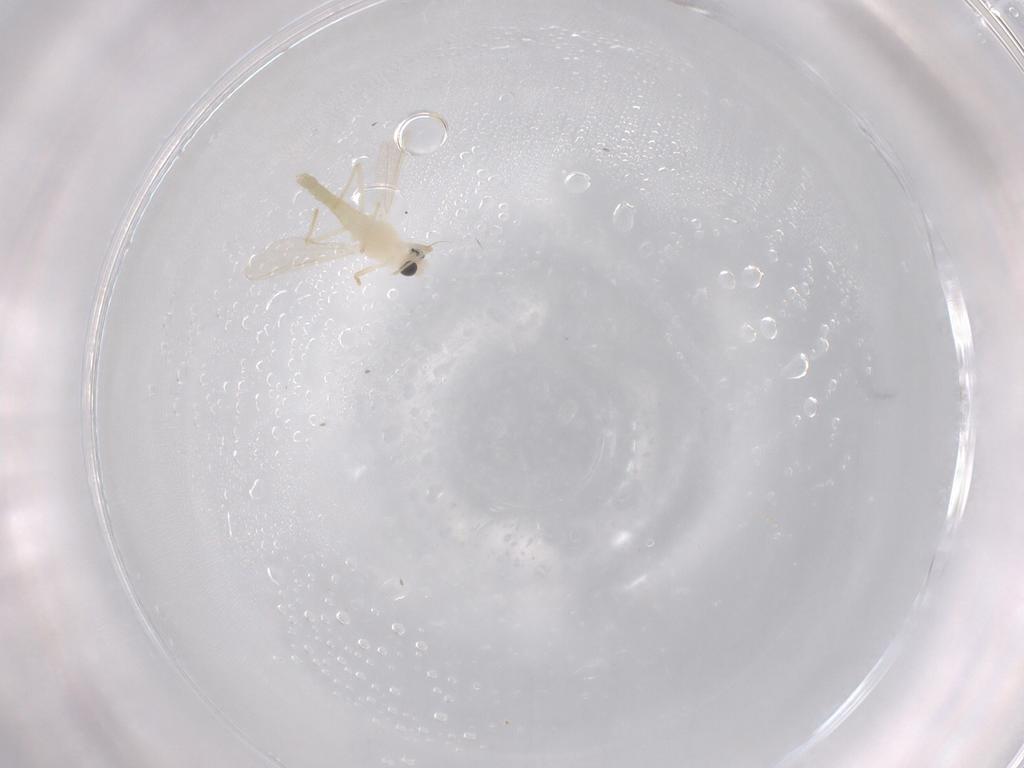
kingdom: Animalia
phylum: Arthropoda
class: Insecta
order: Diptera
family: Chironomidae
